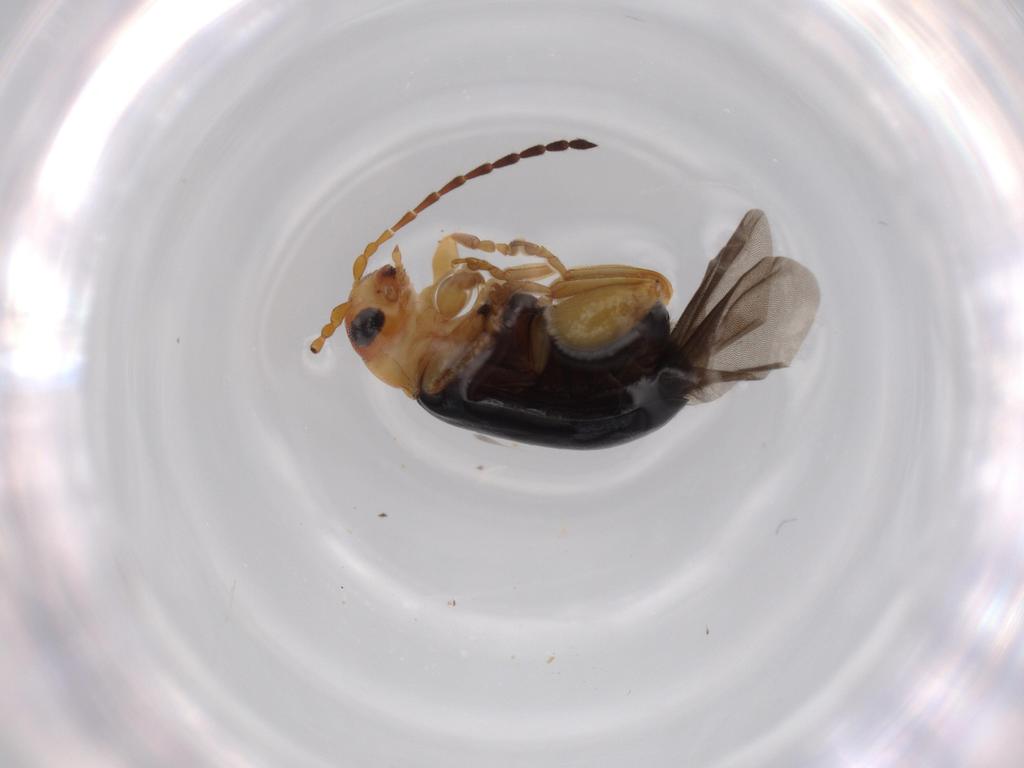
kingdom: Animalia
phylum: Arthropoda
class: Insecta
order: Coleoptera
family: Chrysomelidae
